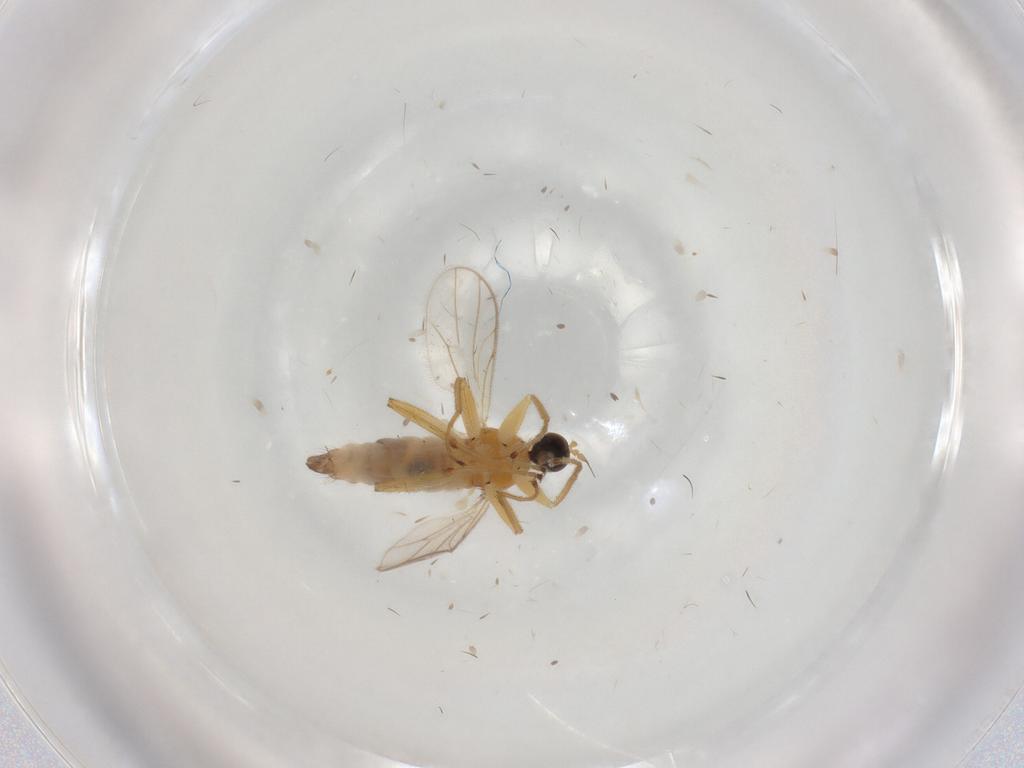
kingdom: Animalia
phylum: Arthropoda
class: Insecta
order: Diptera
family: Hybotidae
